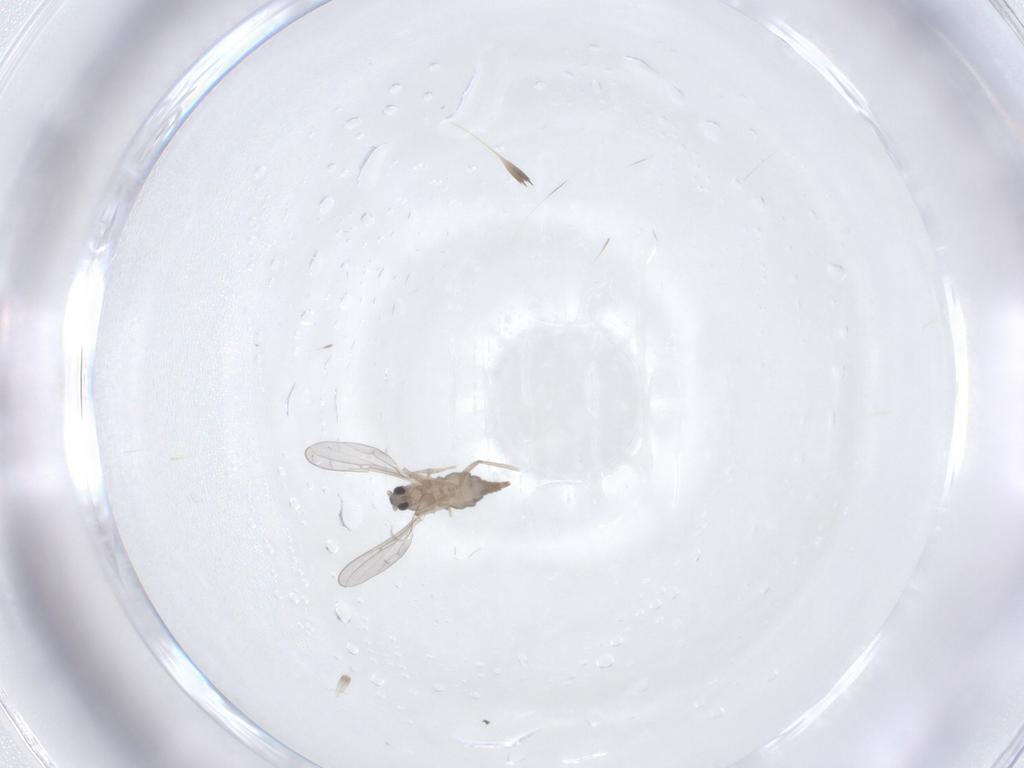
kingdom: Animalia
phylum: Arthropoda
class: Insecta
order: Diptera
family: Cecidomyiidae
